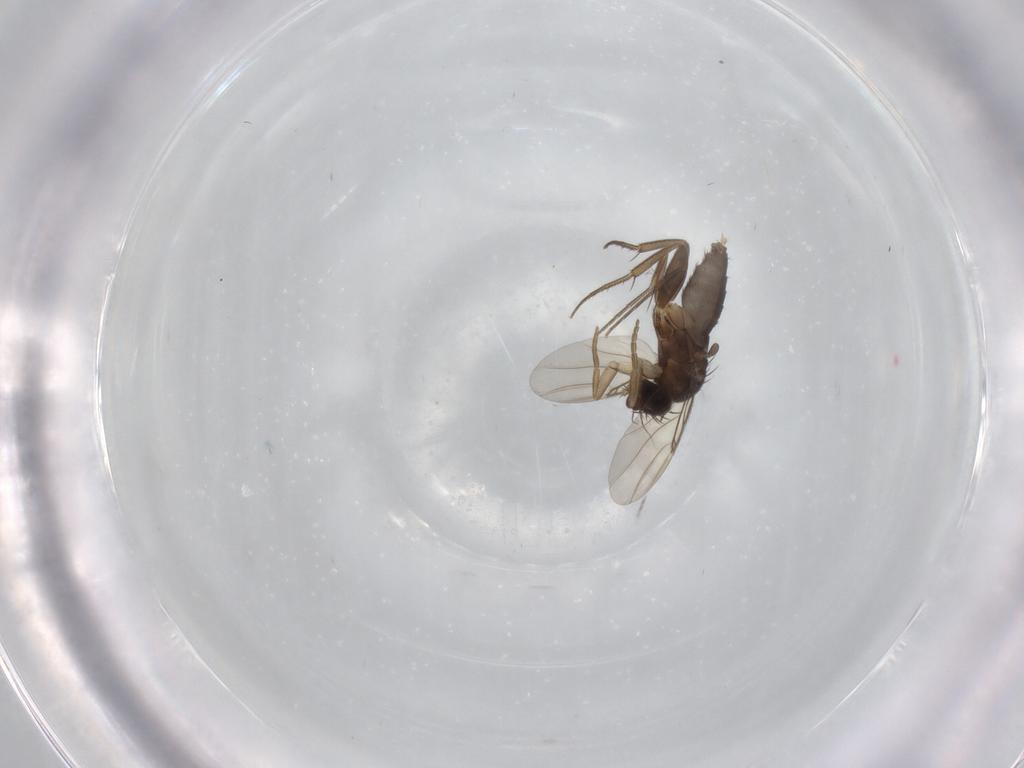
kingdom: Animalia
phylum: Arthropoda
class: Insecta
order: Diptera
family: Phoridae
